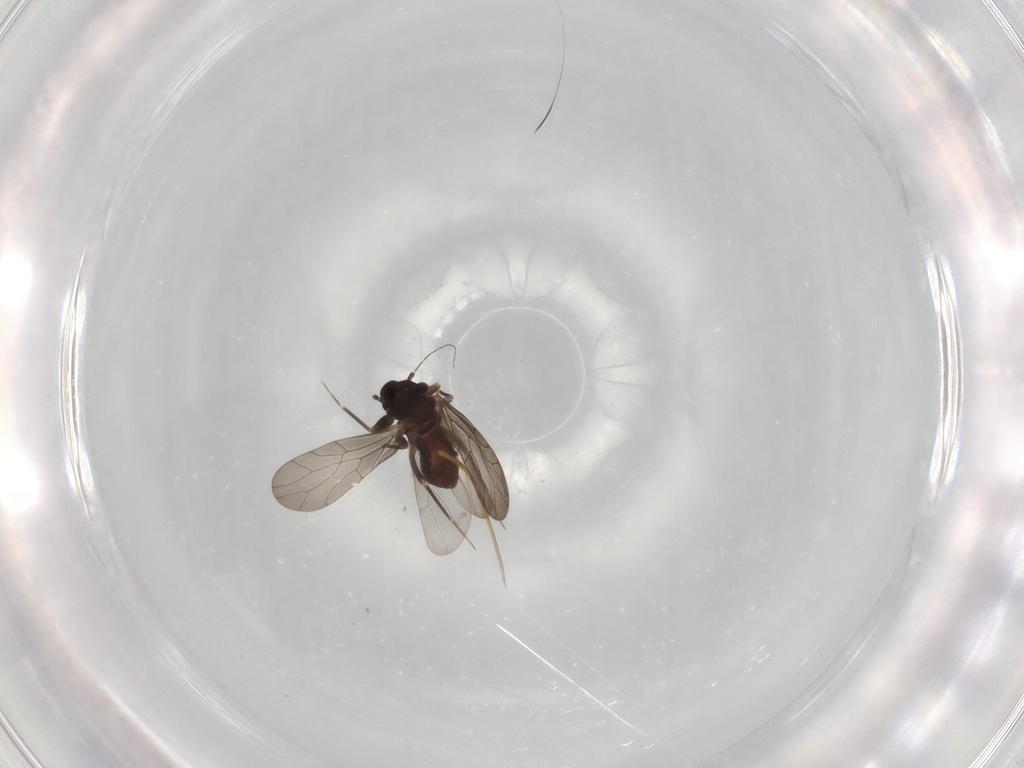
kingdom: Animalia
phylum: Arthropoda
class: Insecta
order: Psocodea
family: Lepidopsocidae
